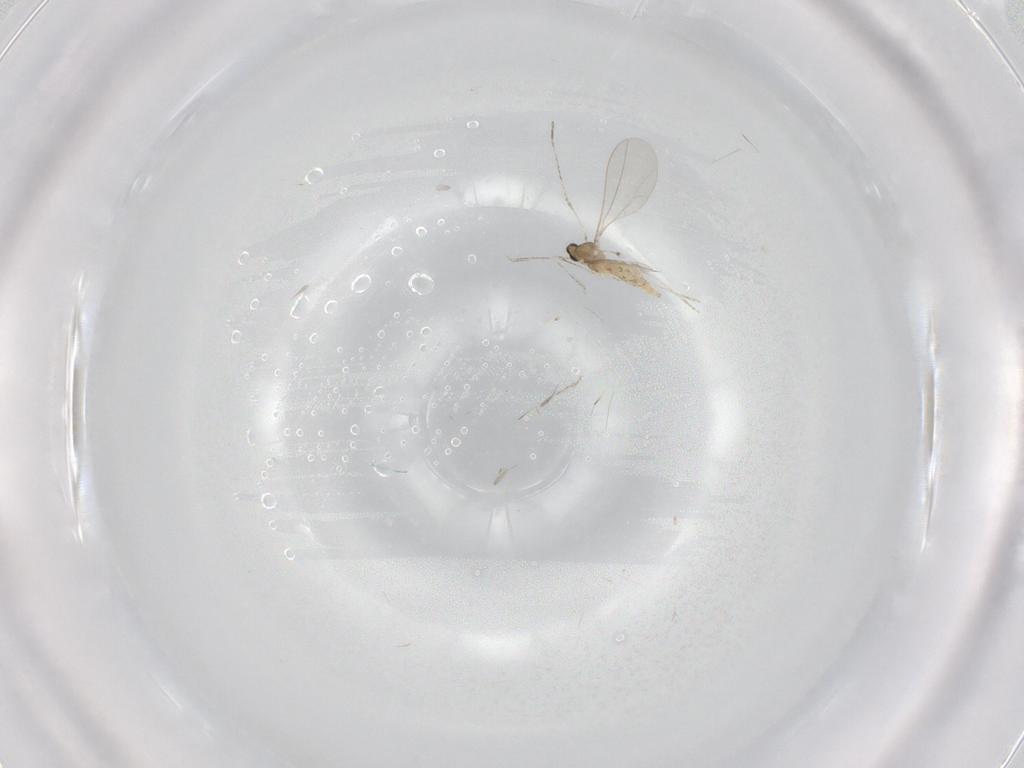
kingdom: Animalia
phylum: Arthropoda
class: Insecta
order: Diptera
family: Cecidomyiidae
